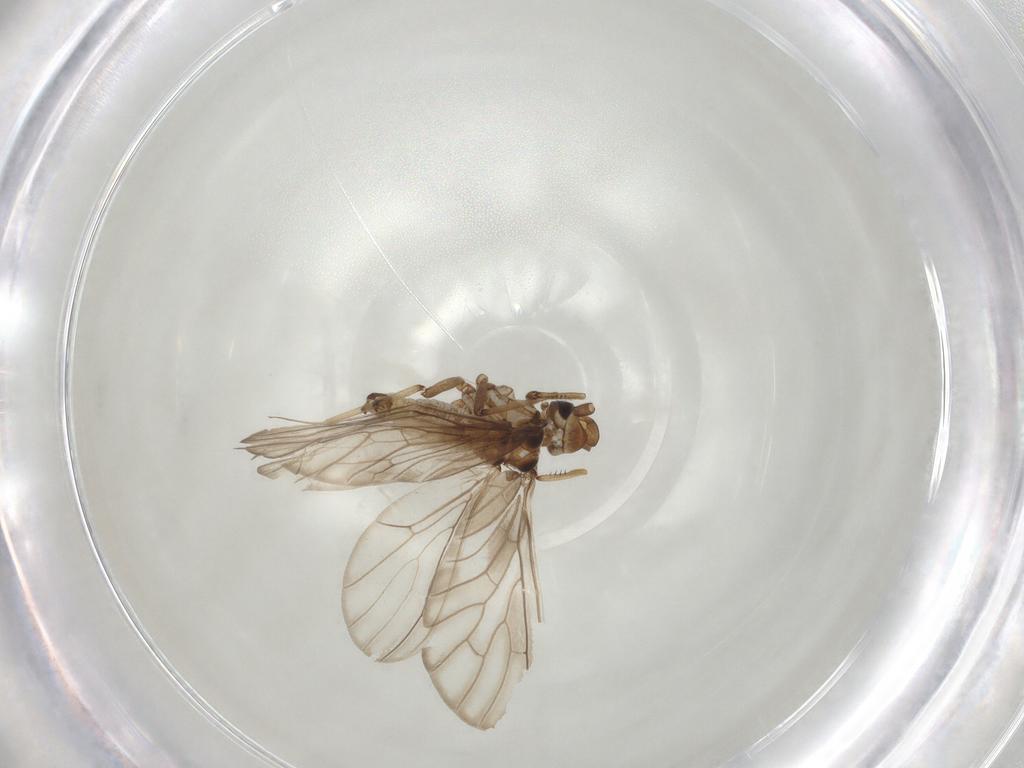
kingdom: Animalia
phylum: Arthropoda
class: Insecta
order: Neuroptera
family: Coniopterygidae
